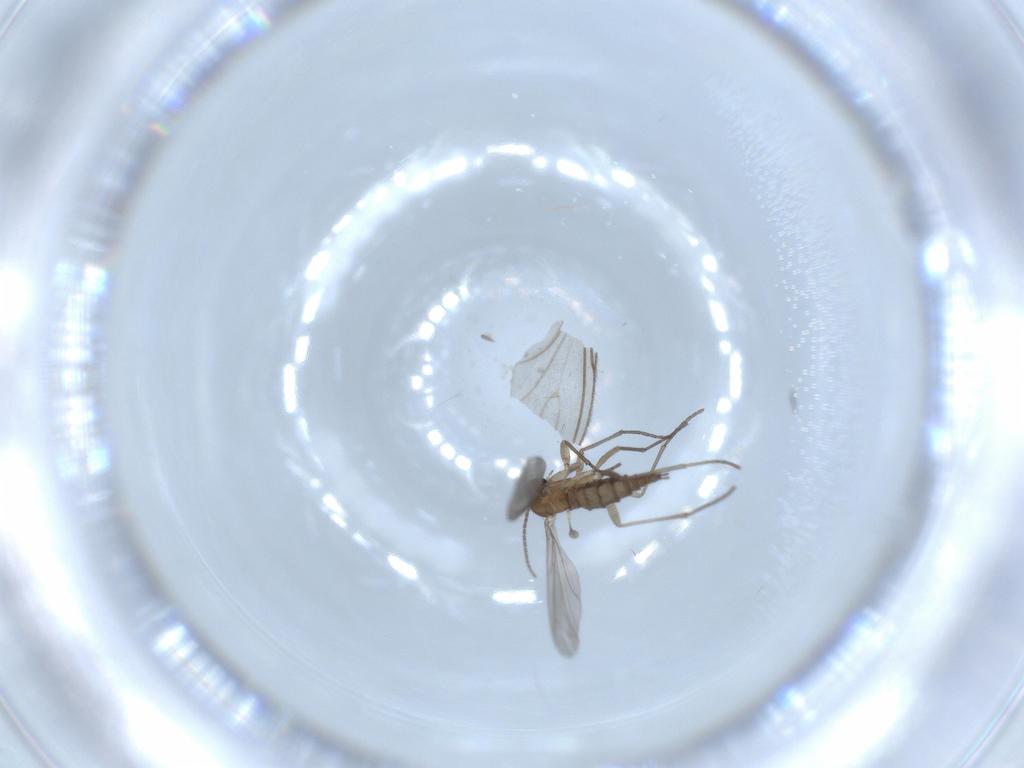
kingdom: Animalia
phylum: Arthropoda
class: Insecta
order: Diptera
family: Sciaridae
